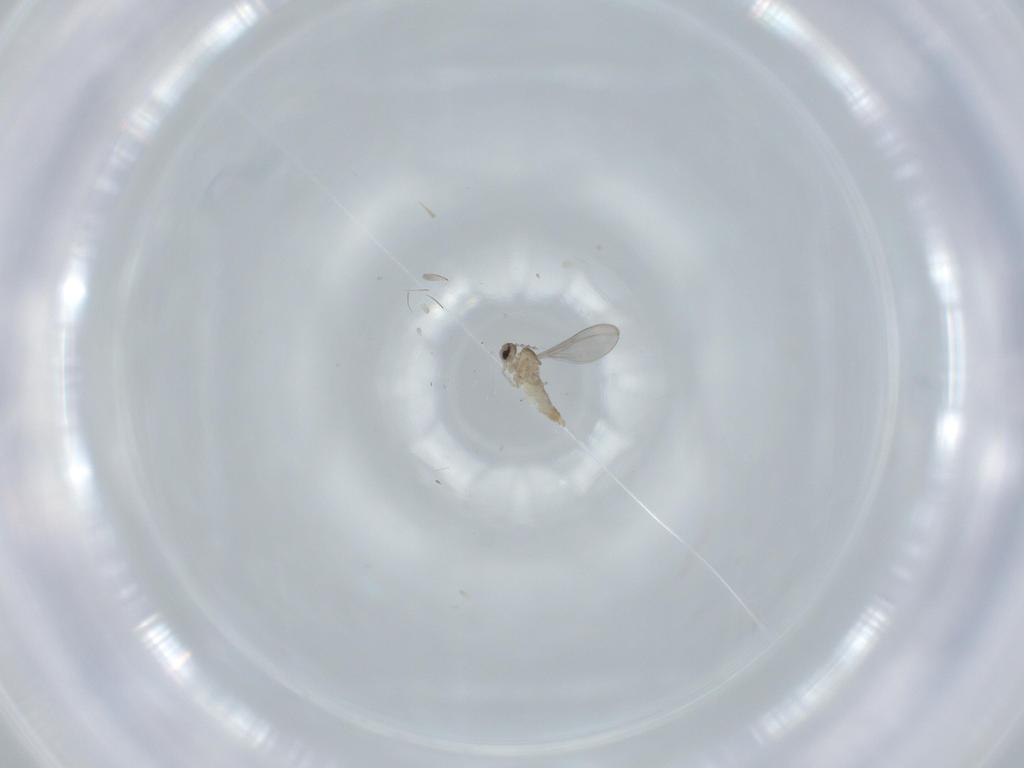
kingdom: Animalia
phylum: Arthropoda
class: Insecta
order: Diptera
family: Cecidomyiidae
